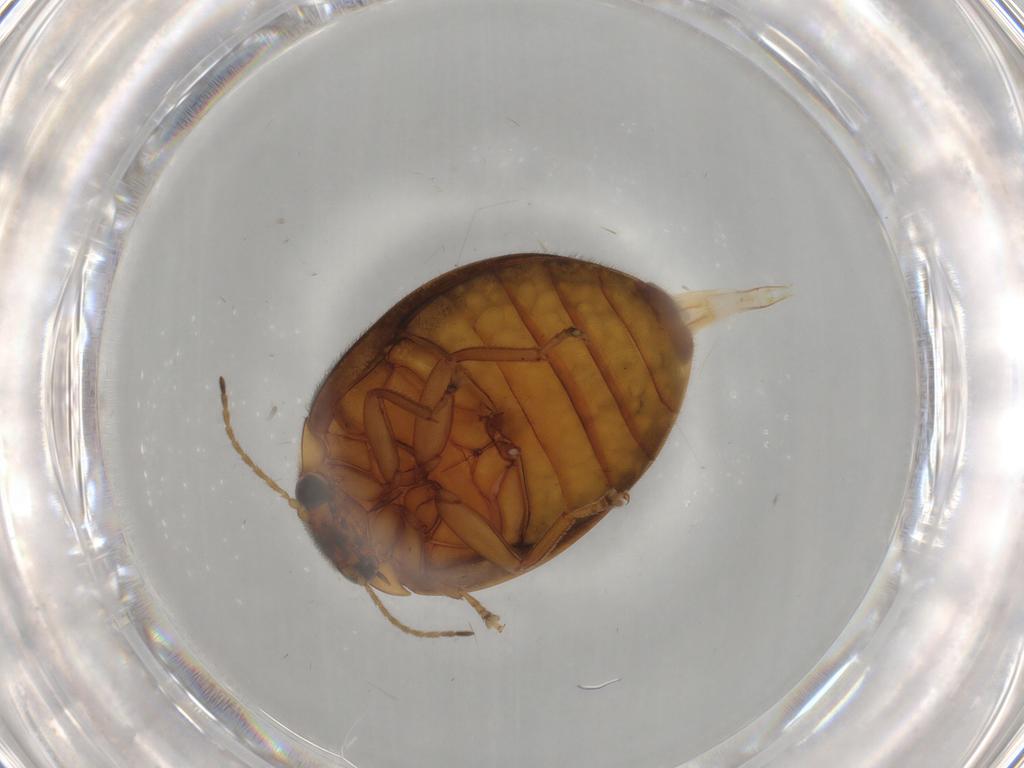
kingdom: Animalia
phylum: Arthropoda
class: Insecta
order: Coleoptera
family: Scirtidae
